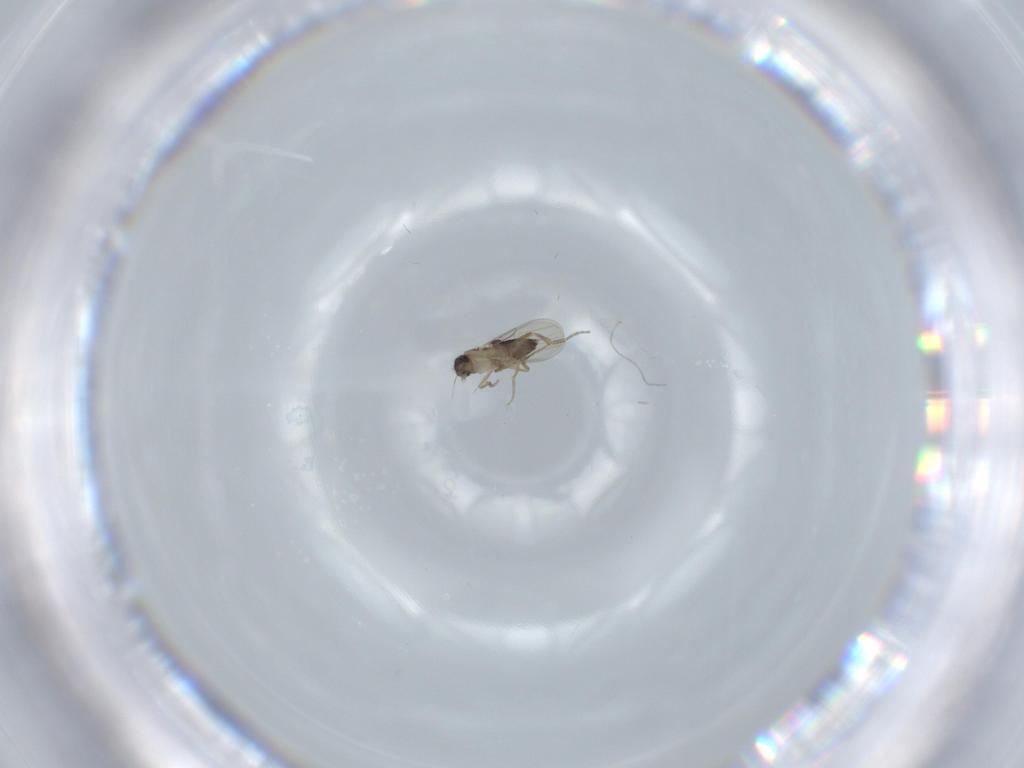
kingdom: Animalia
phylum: Arthropoda
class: Insecta
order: Diptera
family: Phoridae
